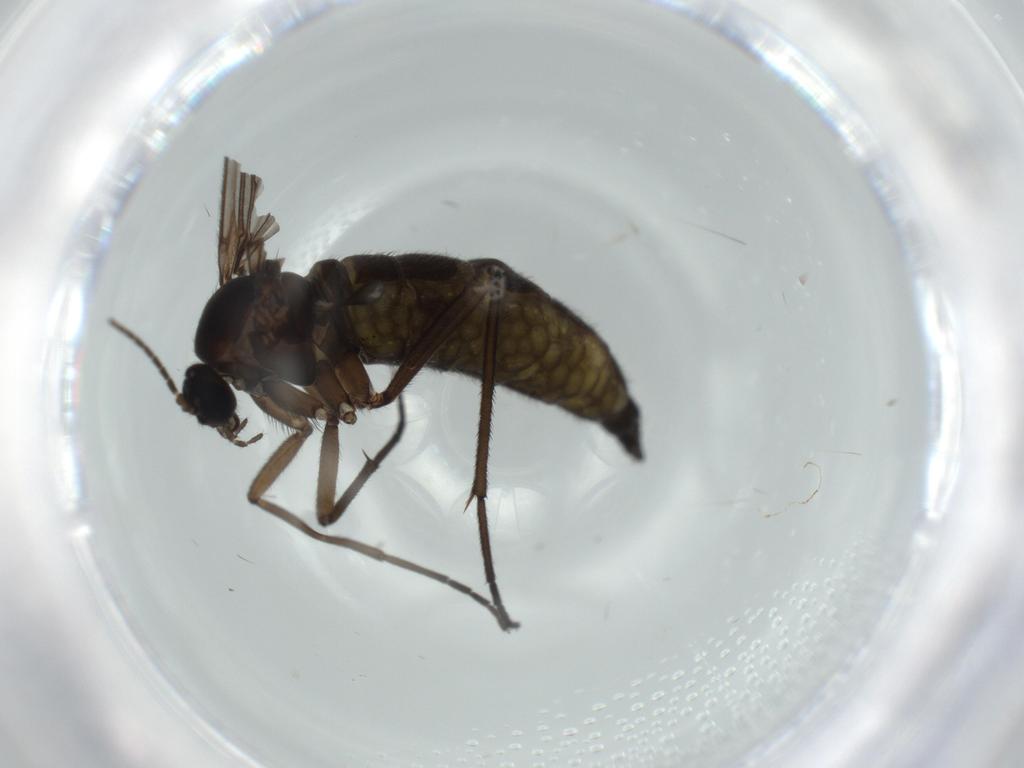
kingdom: Animalia
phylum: Arthropoda
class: Insecta
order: Diptera
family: Sciaridae
